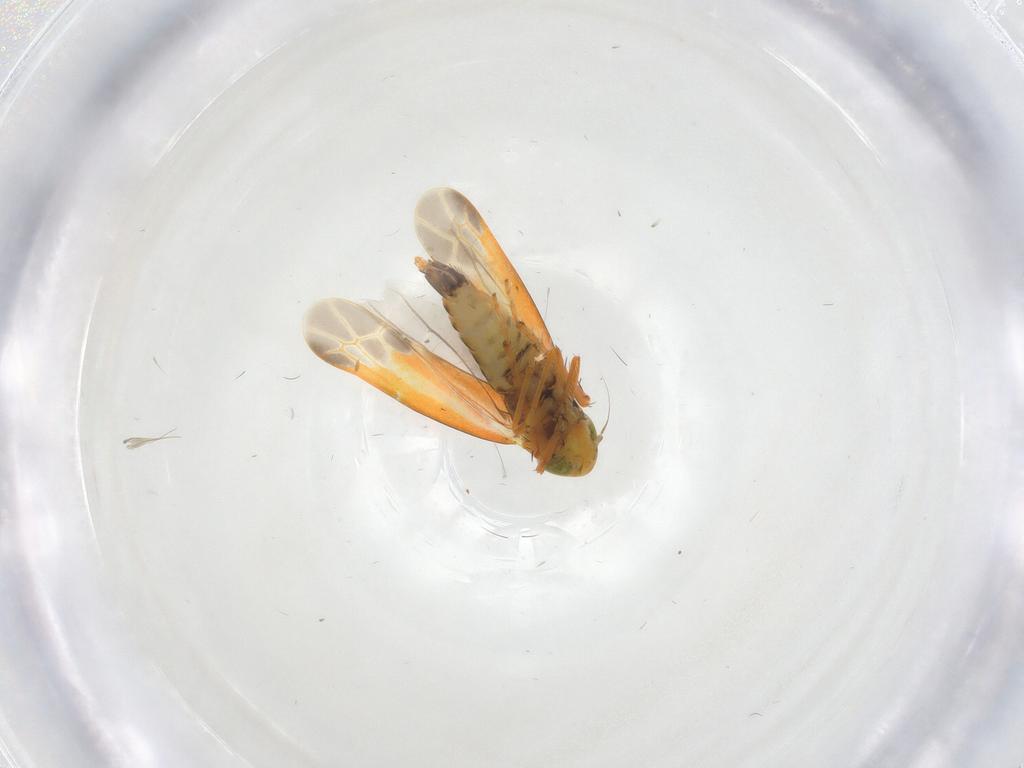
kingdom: Animalia
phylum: Arthropoda
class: Insecta
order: Hemiptera
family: Cicadellidae
